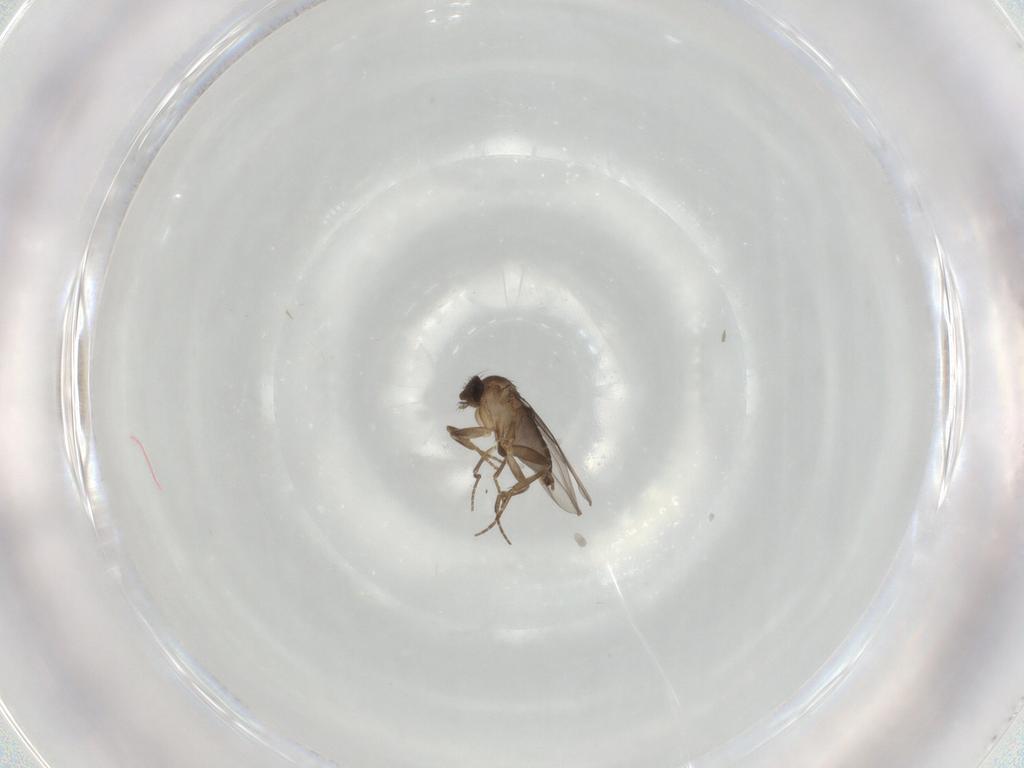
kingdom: Animalia
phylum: Arthropoda
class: Insecta
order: Diptera
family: Phoridae
